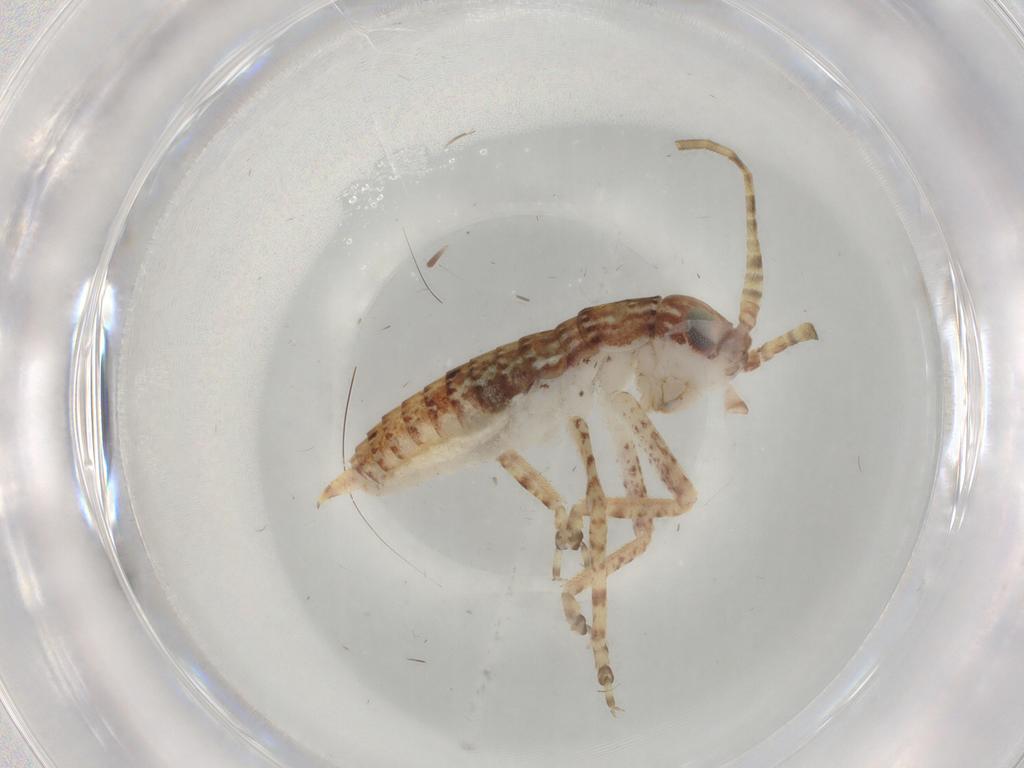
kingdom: Animalia
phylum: Arthropoda
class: Insecta
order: Orthoptera
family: Gryllidae
